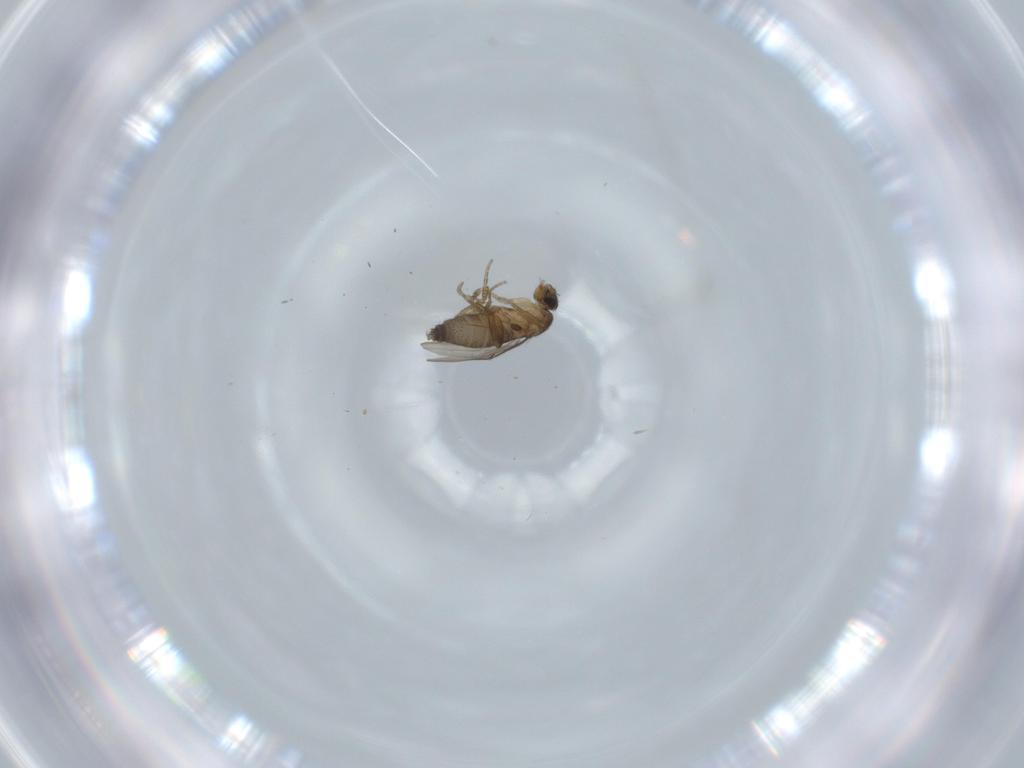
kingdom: Animalia
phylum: Arthropoda
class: Insecta
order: Diptera
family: Phoridae
